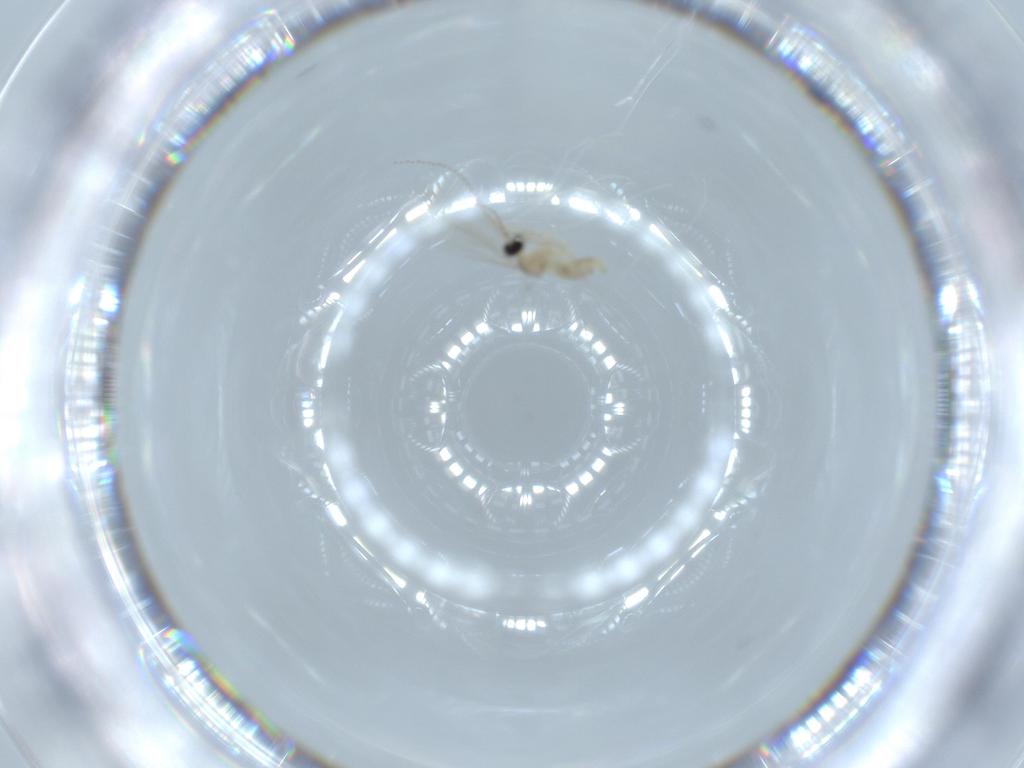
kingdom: Animalia
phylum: Arthropoda
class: Insecta
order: Diptera
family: Cecidomyiidae
